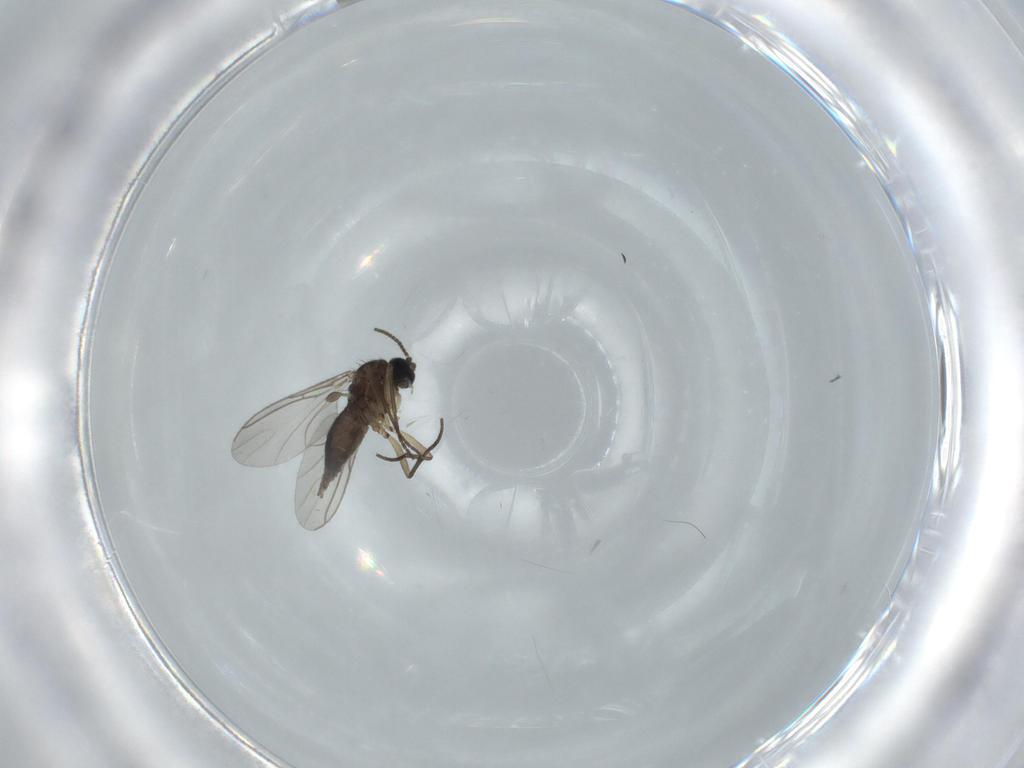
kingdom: Animalia
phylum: Arthropoda
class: Insecta
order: Diptera
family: Sciaridae
